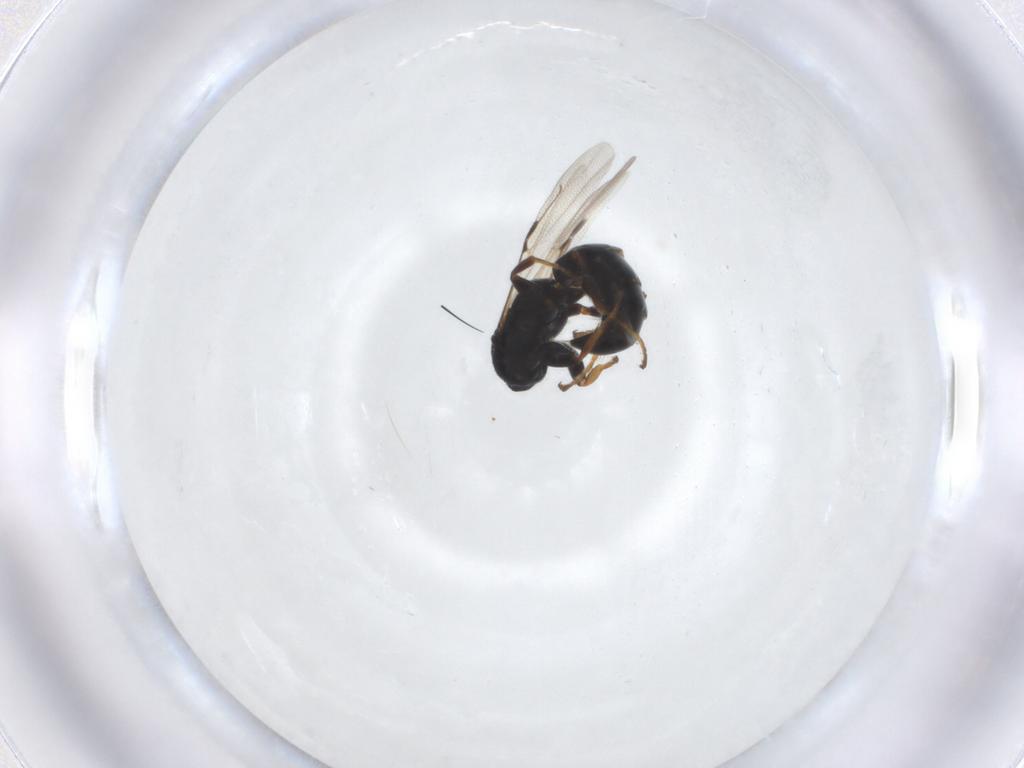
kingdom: Animalia
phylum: Arthropoda
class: Insecta
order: Hymenoptera
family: Bethylidae
